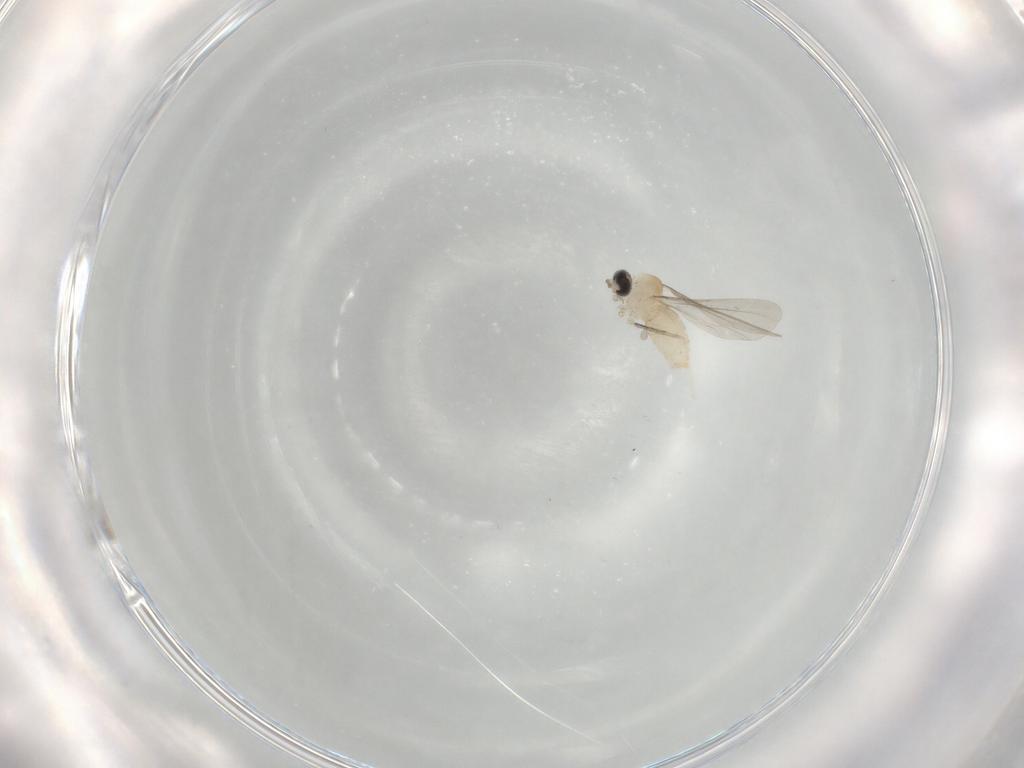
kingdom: Animalia
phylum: Arthropoda
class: Insecta
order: Diptera
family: Cecidomyiidae
